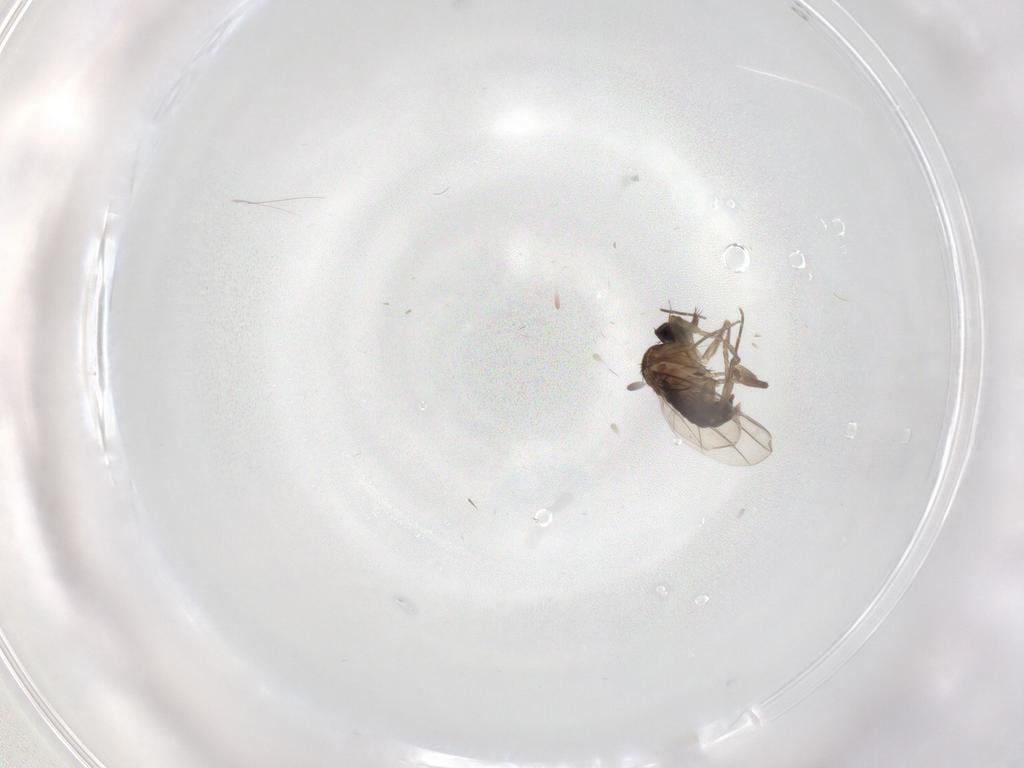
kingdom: Animalia
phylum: Arthropoda
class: Insecta
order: Diptera
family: Phoridae
